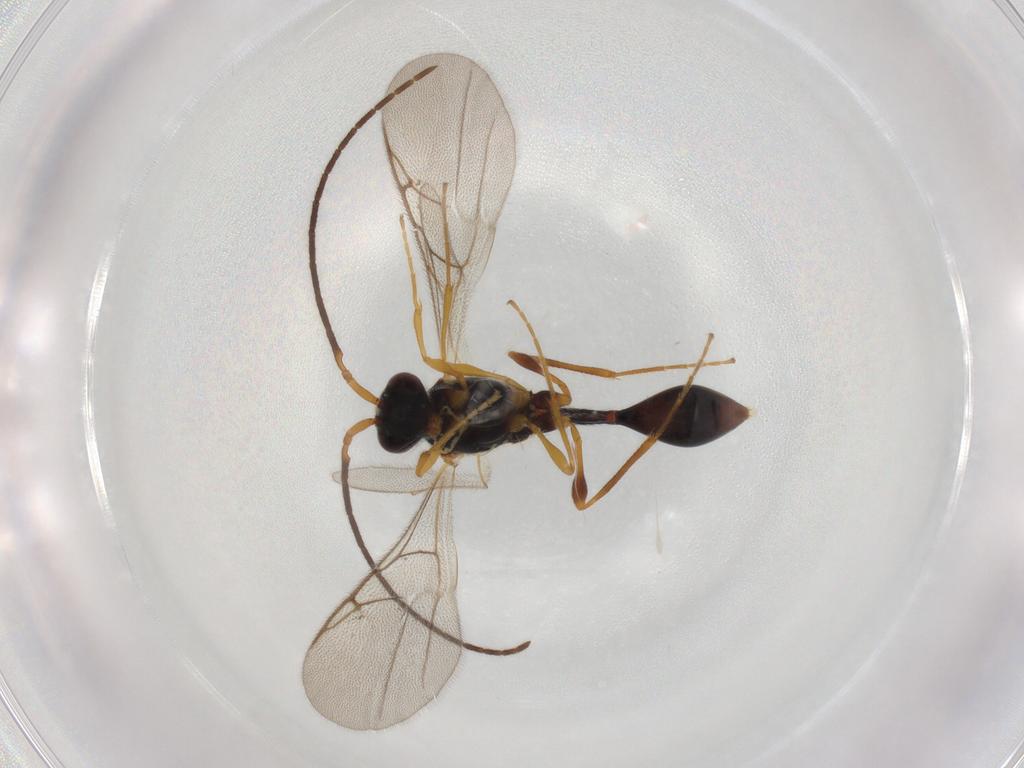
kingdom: Animalia
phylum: Arthropoda
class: Insecta
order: Hymenoptera
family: Diapriidae
